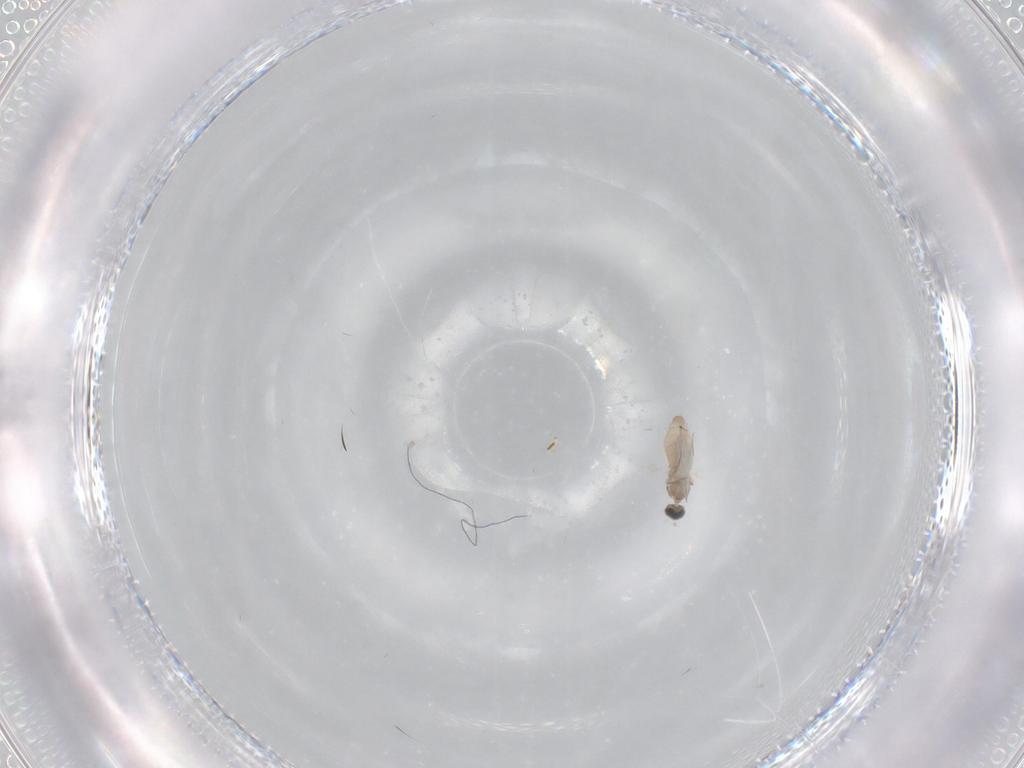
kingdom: Animalia
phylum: Arthropoda
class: Insecta
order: Diptera
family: Cecidomyiidae
